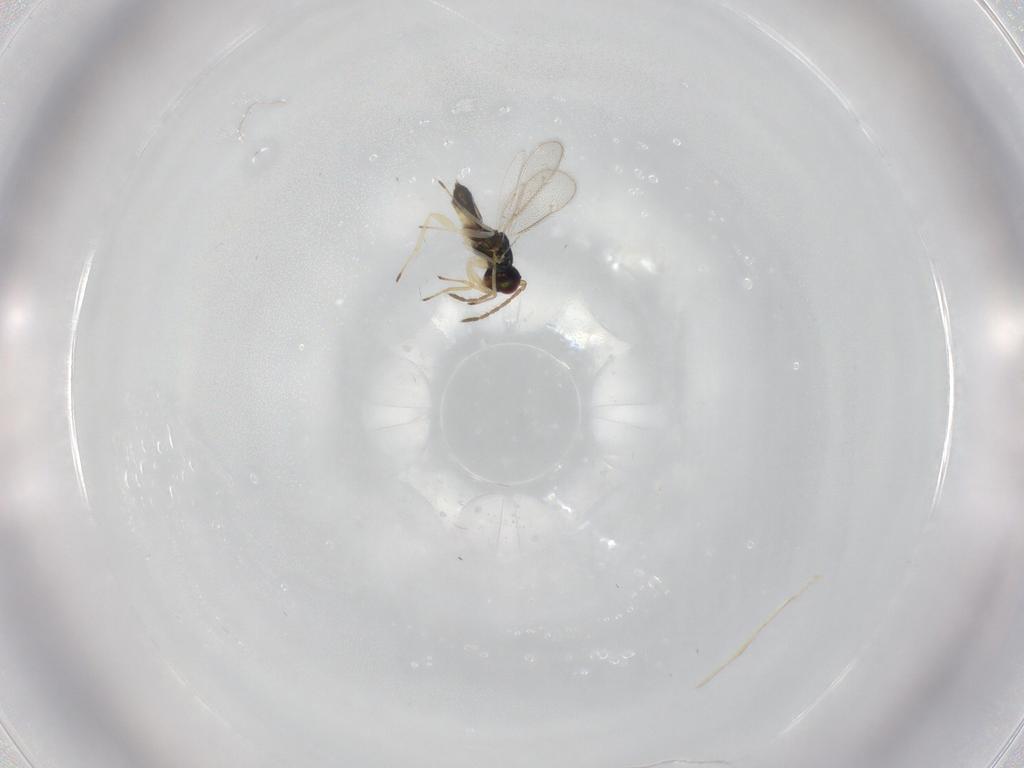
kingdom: Animalia
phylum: Arthropoda
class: Insecta
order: Hymenoptera
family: Eulophidae
